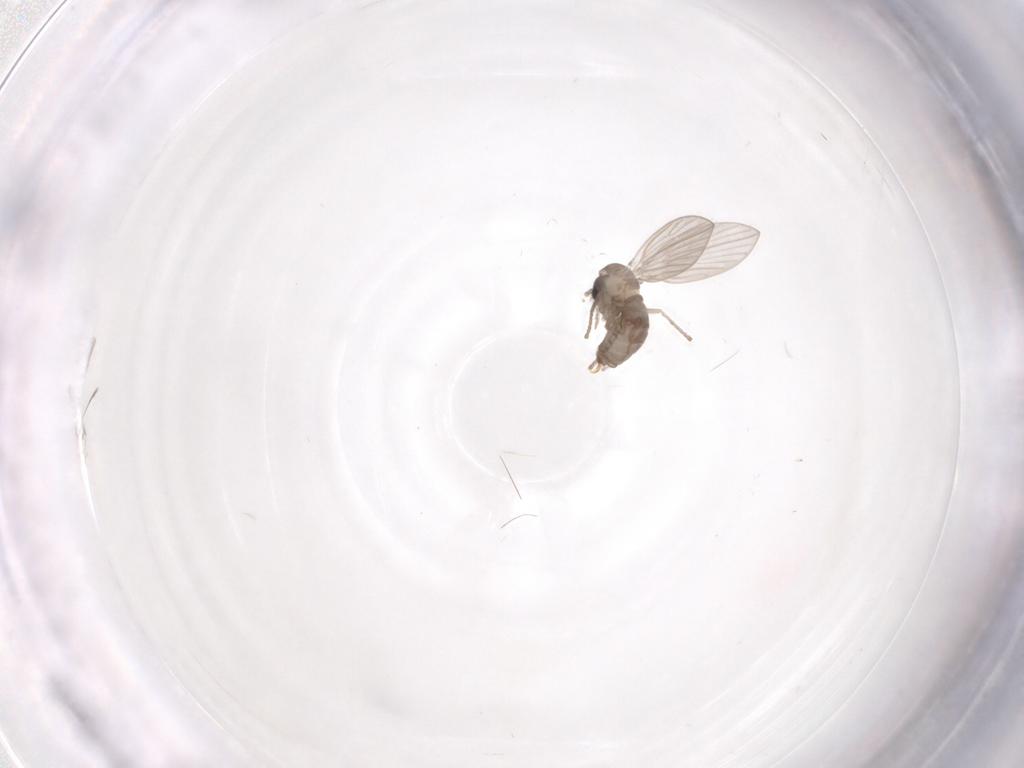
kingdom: Animalia
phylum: Arthropoda
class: Insecta
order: Diptera
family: Psychodidae
